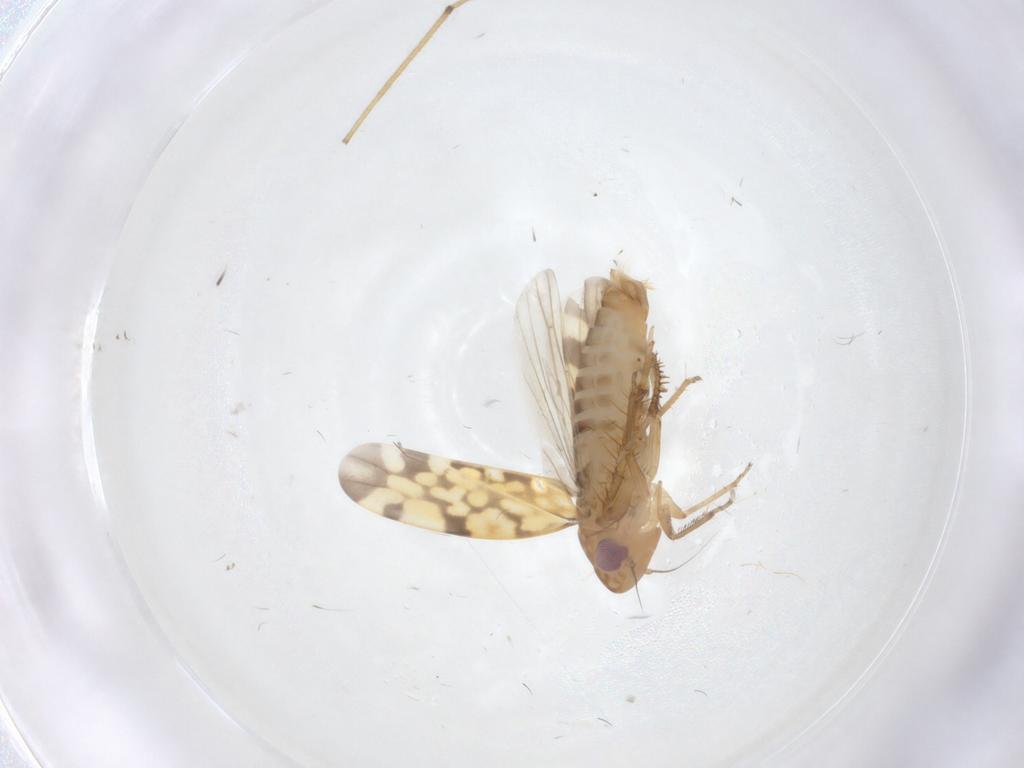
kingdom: Animalia
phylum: Arthropoda
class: Insecta
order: Hemiptera
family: Cicadellidae
